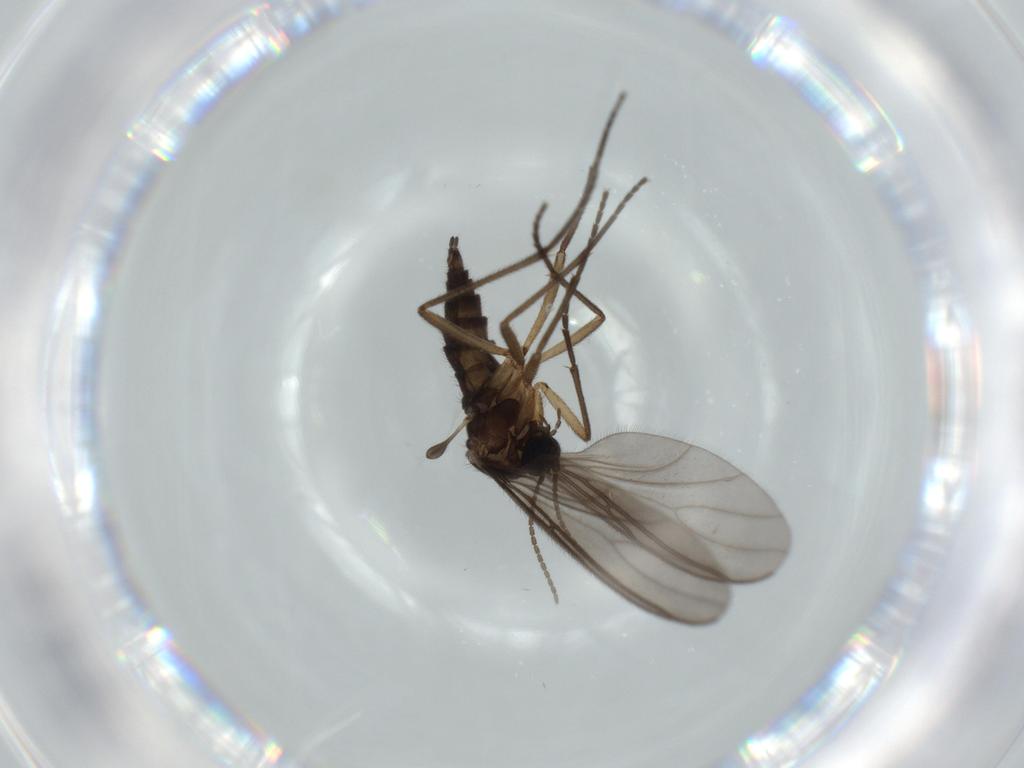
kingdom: Animalia
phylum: Arthropoda
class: Insecta
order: Diptera
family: Sciaridae
